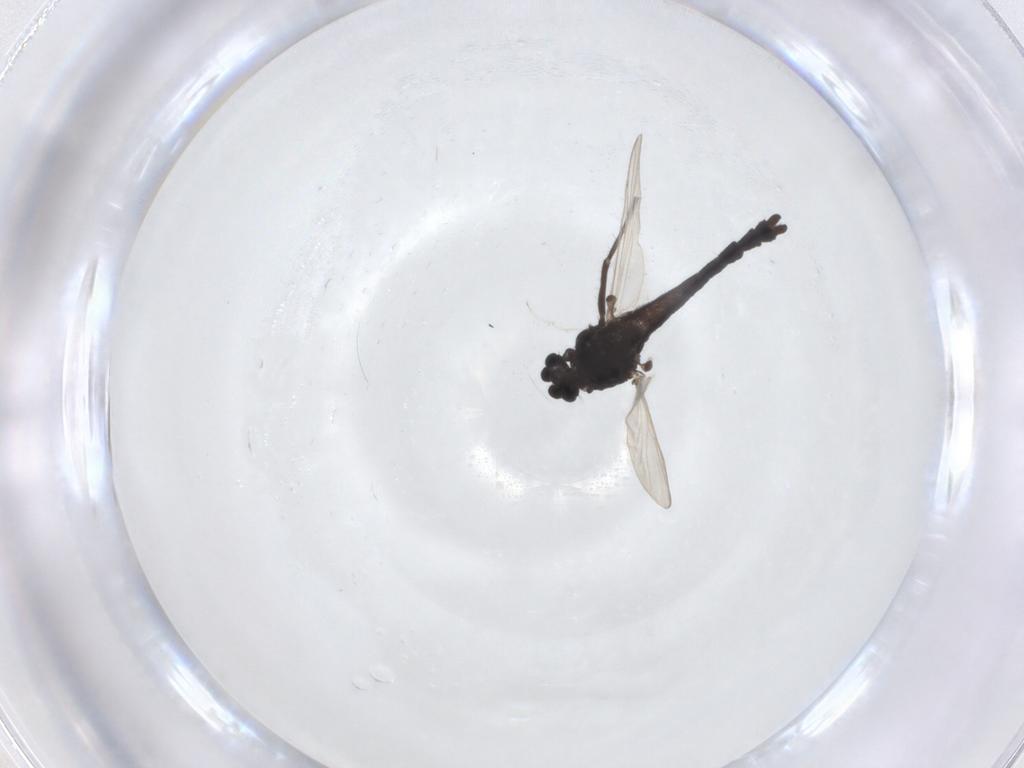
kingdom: Animalia
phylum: Arthropoda
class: Insecta
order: Diptera
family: Chironomidae
